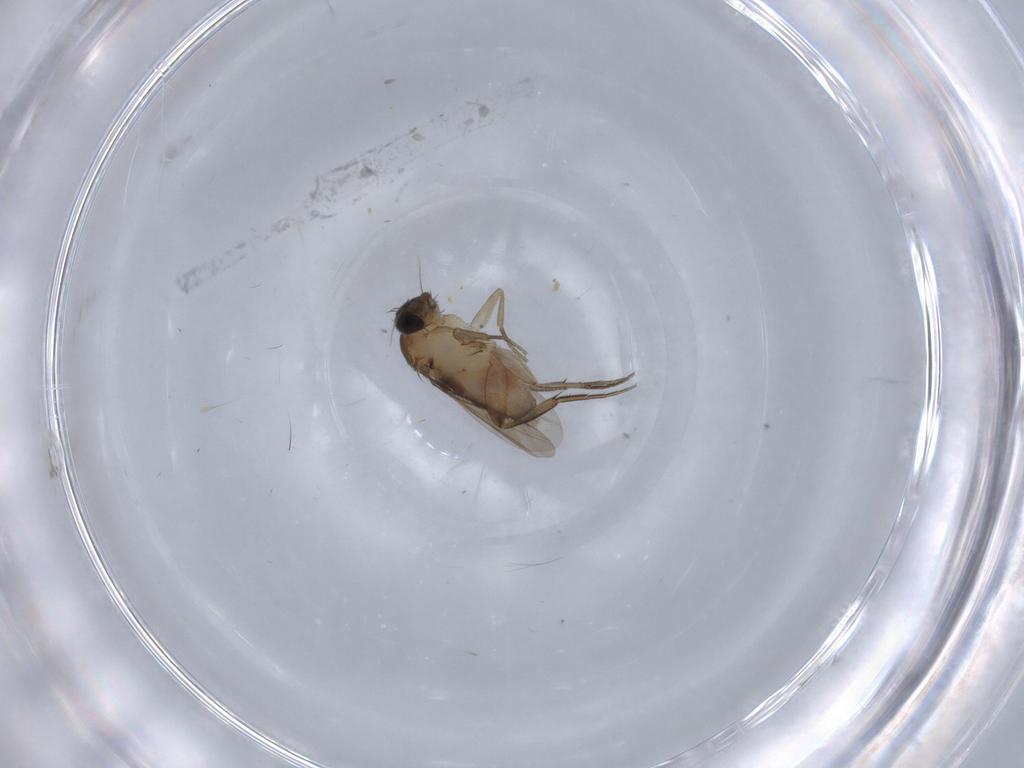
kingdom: Animalia
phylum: Arthropoda
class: Insecta
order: Diptera
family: Phoridae
